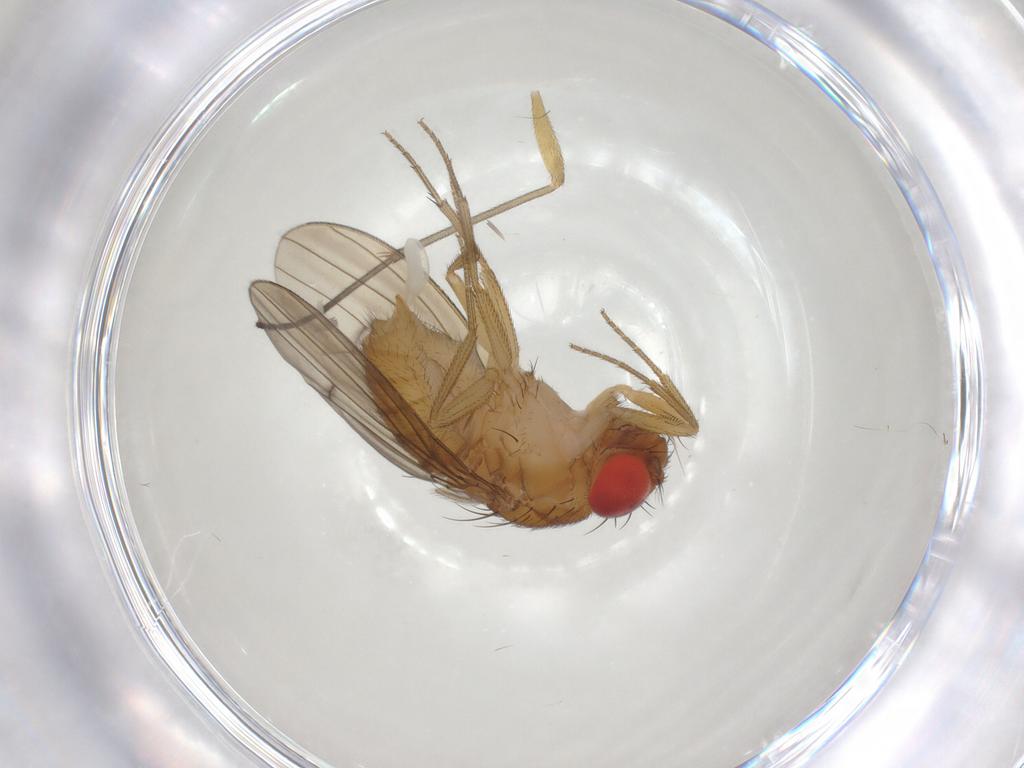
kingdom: Animalia
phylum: Arthropoda
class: Insecta
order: Diptera
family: Drosophilidae
